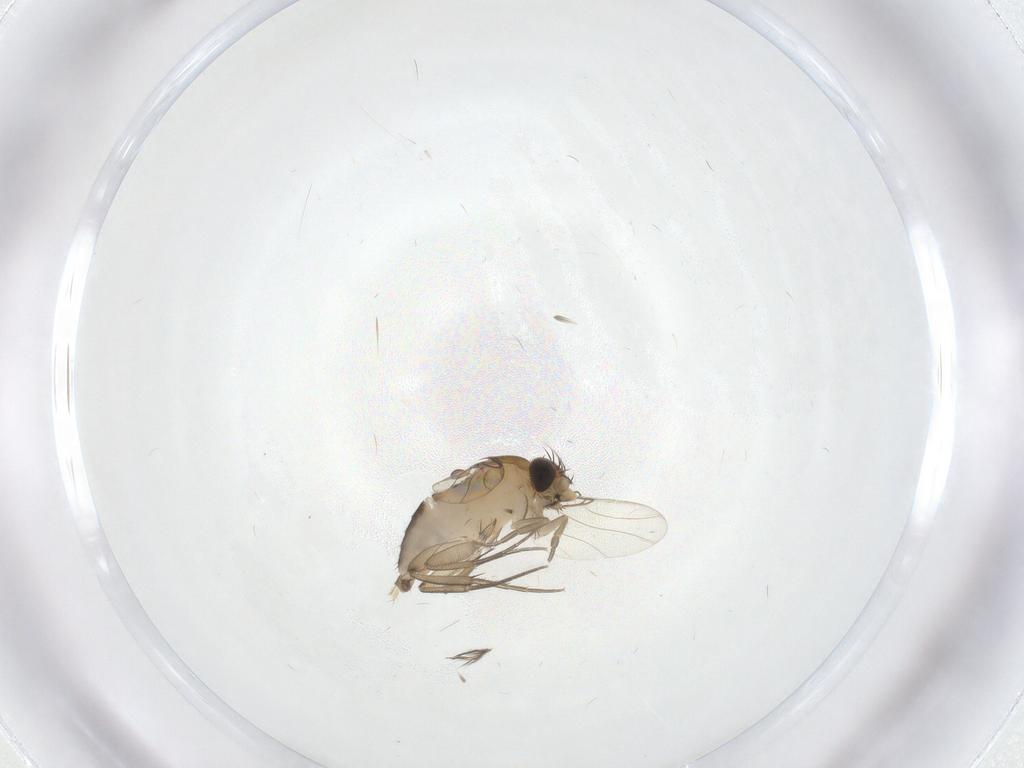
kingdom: Animalia
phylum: Arthropoda
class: Insecta
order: Diptera
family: Phoridae
